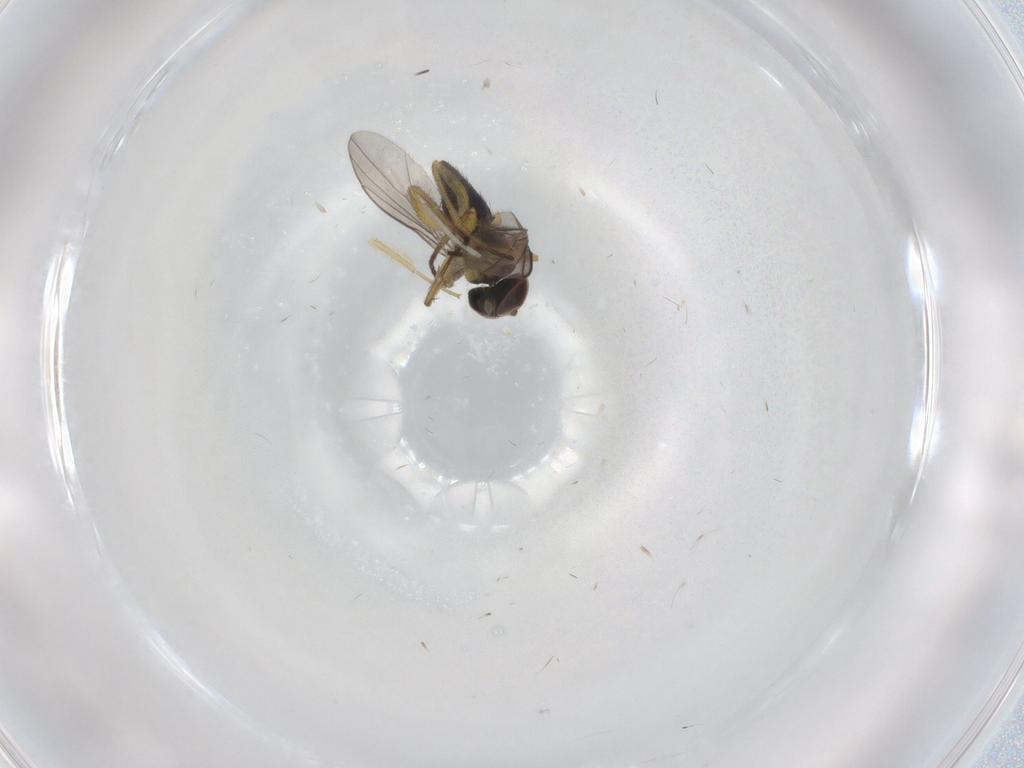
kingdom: Animalia
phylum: Arthropoda
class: Insecta
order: Diptera
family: Dolichopodidae
